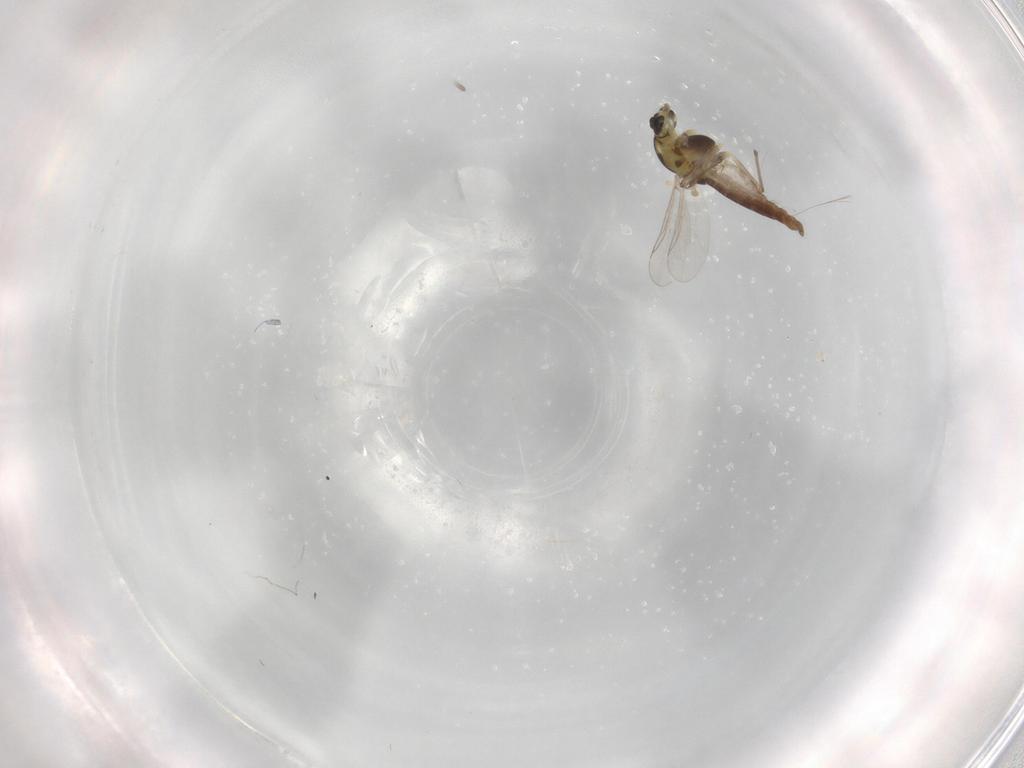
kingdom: Animalia
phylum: Arthropoda
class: Insecta
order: Diptera
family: Chironomidae
